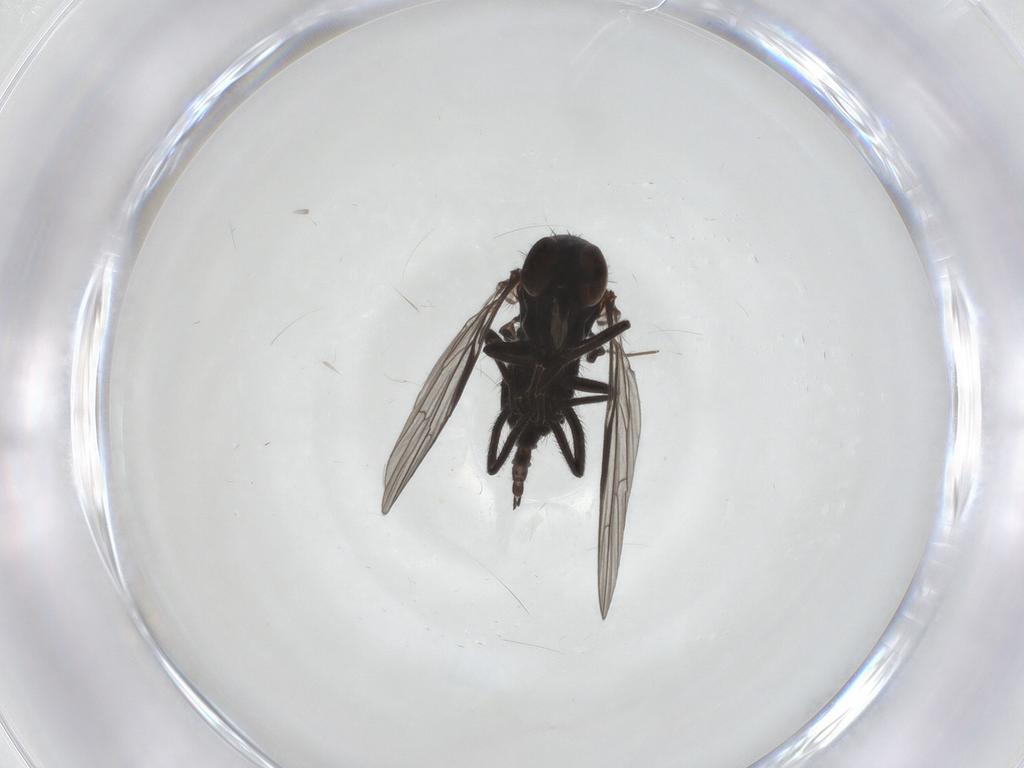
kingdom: Animalia
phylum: Arthropoda
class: Insecta
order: Diptera
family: Empididae
